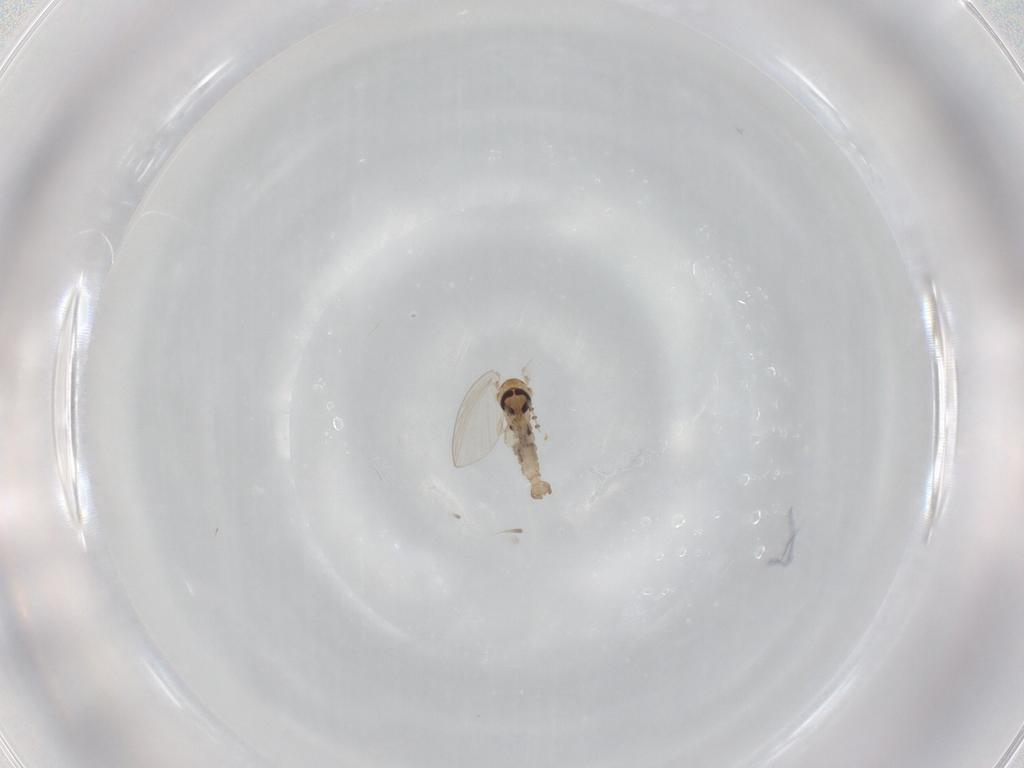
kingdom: Animalia
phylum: Arthropoda
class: Insecta
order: Diptera
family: Psychodidae
